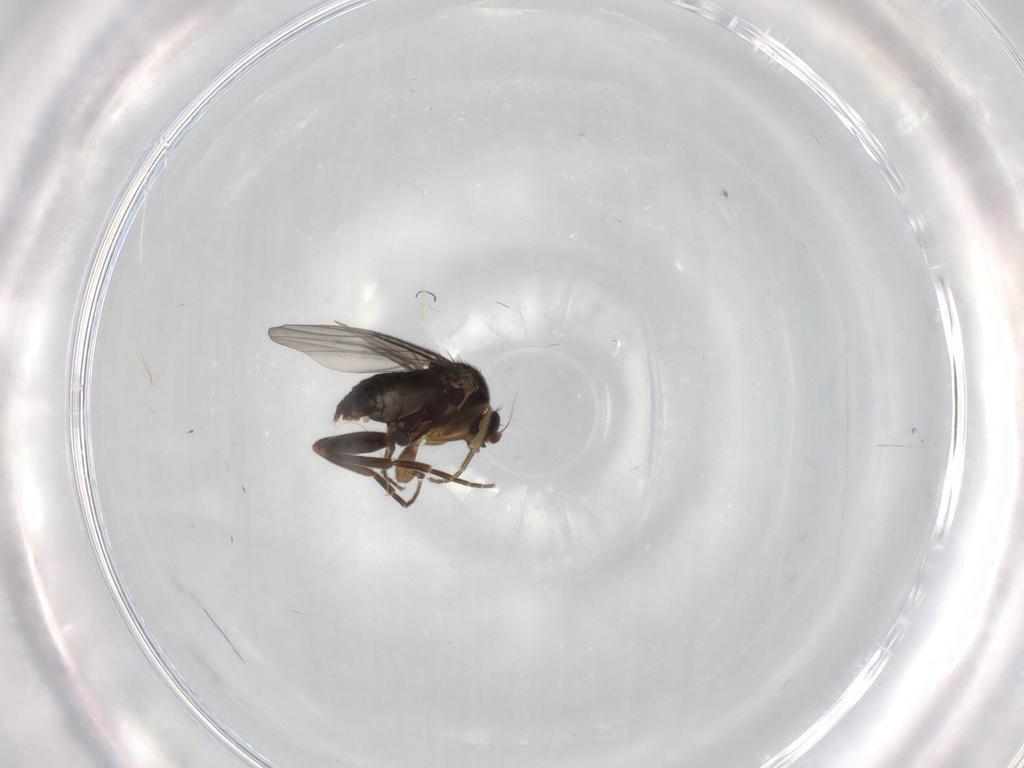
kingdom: Animalia
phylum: Arthropoda
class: Insecta
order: Diptera
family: Phoridae
